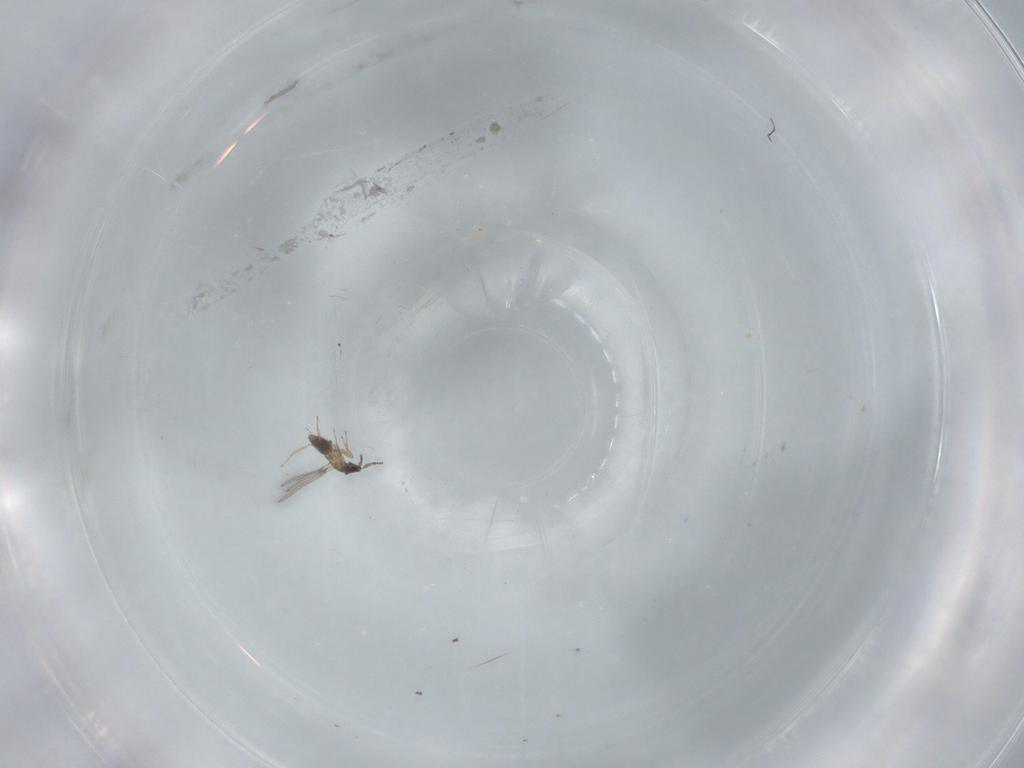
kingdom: Animalia
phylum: Arthropoda
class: Insecta
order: Hymenoptera
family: Mymaridae
